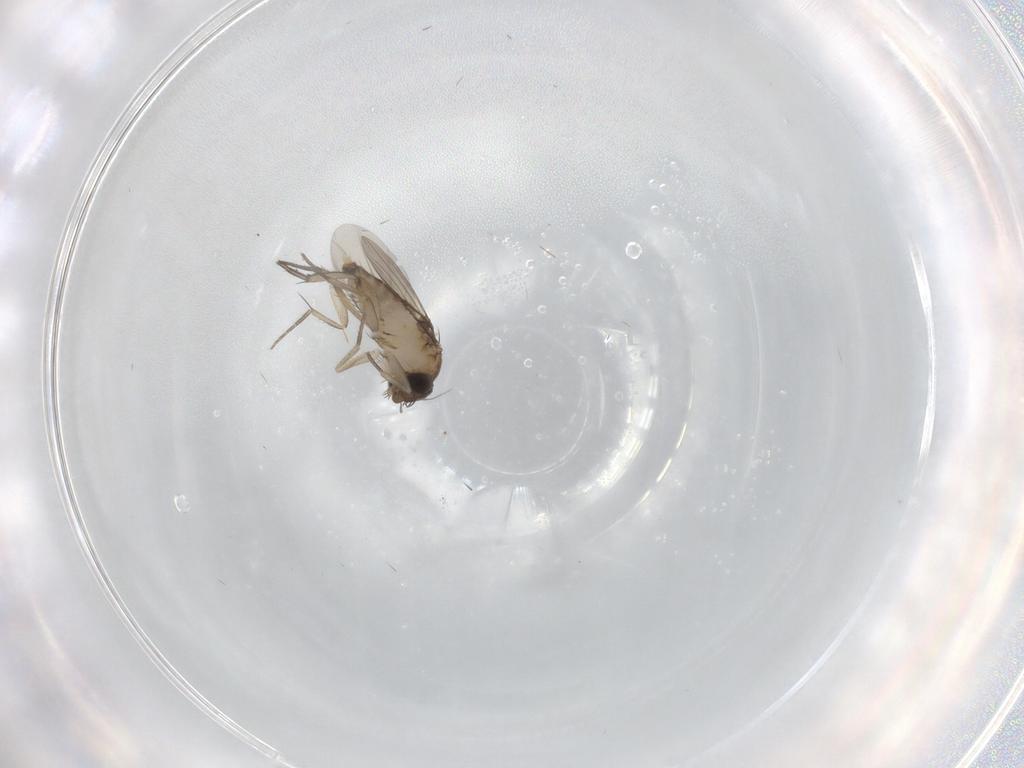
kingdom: Animalia
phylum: Arthropoda
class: Insecta
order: Diptera
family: Phoridae
